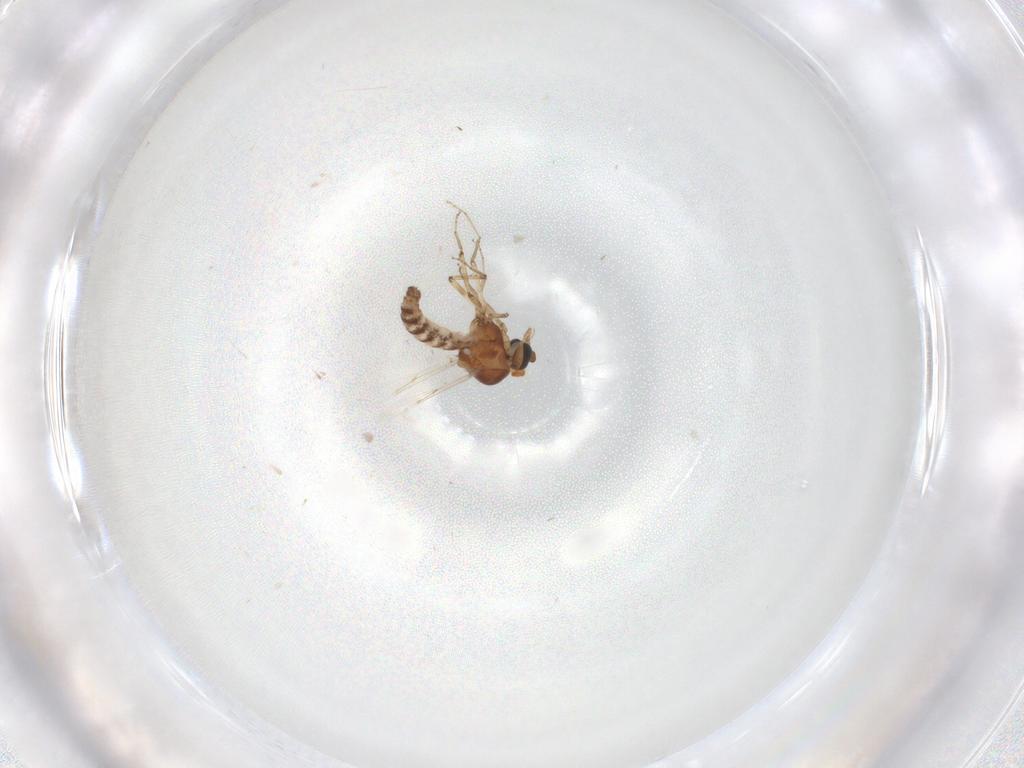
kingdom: Animalia
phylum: Arthropoda
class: Insecta
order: Diptera
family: Ceratopogonidae
